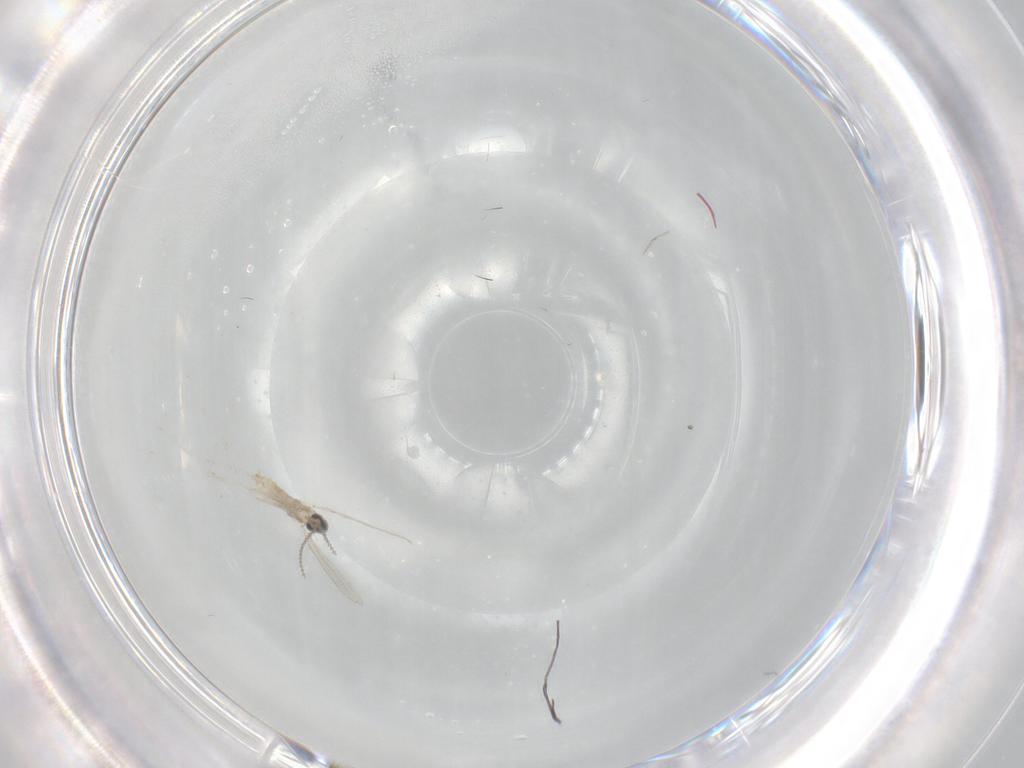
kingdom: Animalia
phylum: Arthropoda
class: Insecta
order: Diptera
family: Cecidomyiidae
